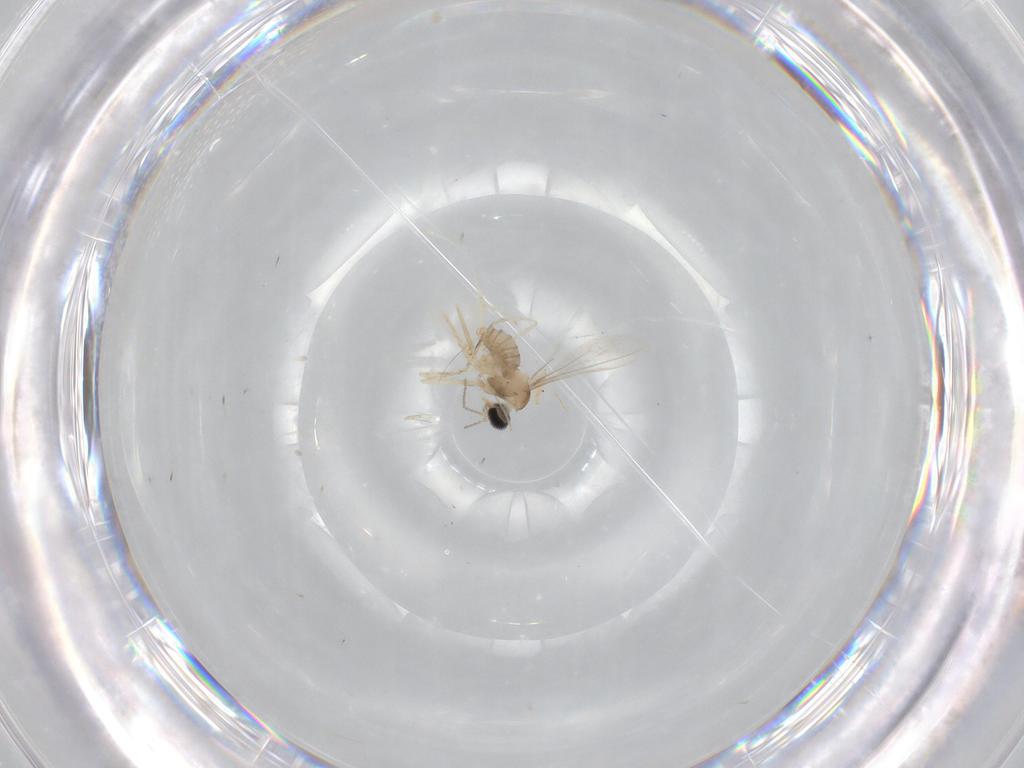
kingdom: Animalia
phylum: Arthropoda
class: Insecta
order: Diptera
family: Cecidomyiidae
